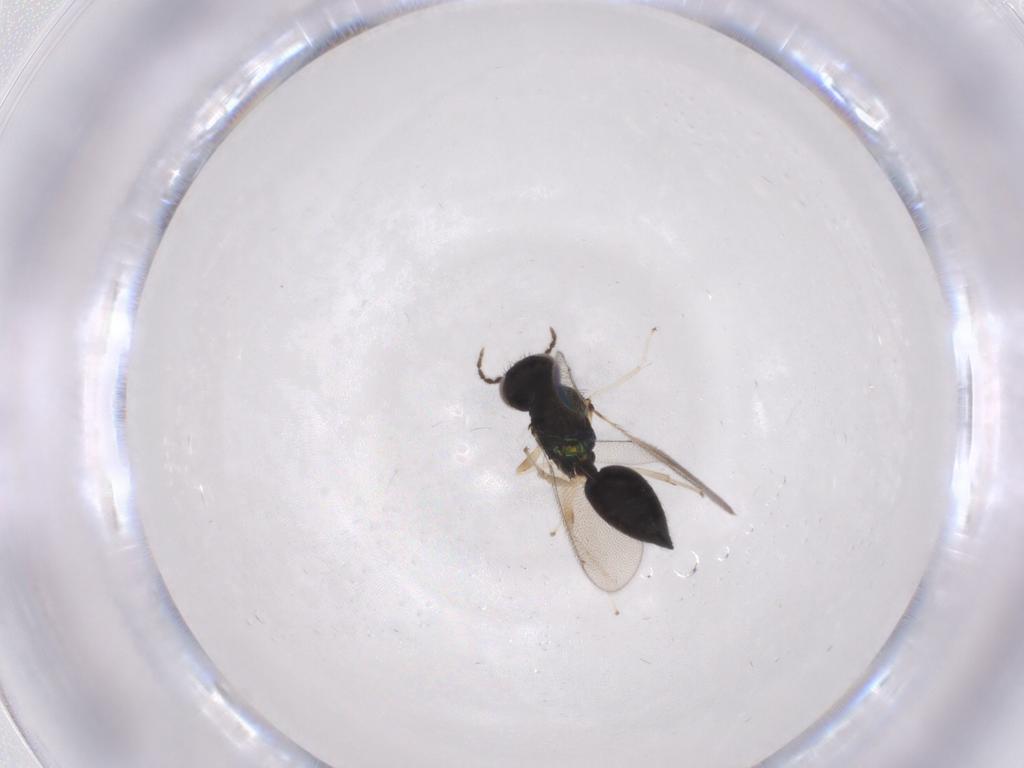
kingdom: Animalia
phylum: Arthropoda
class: Insecta
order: Hymenoptera
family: Eulophidae
